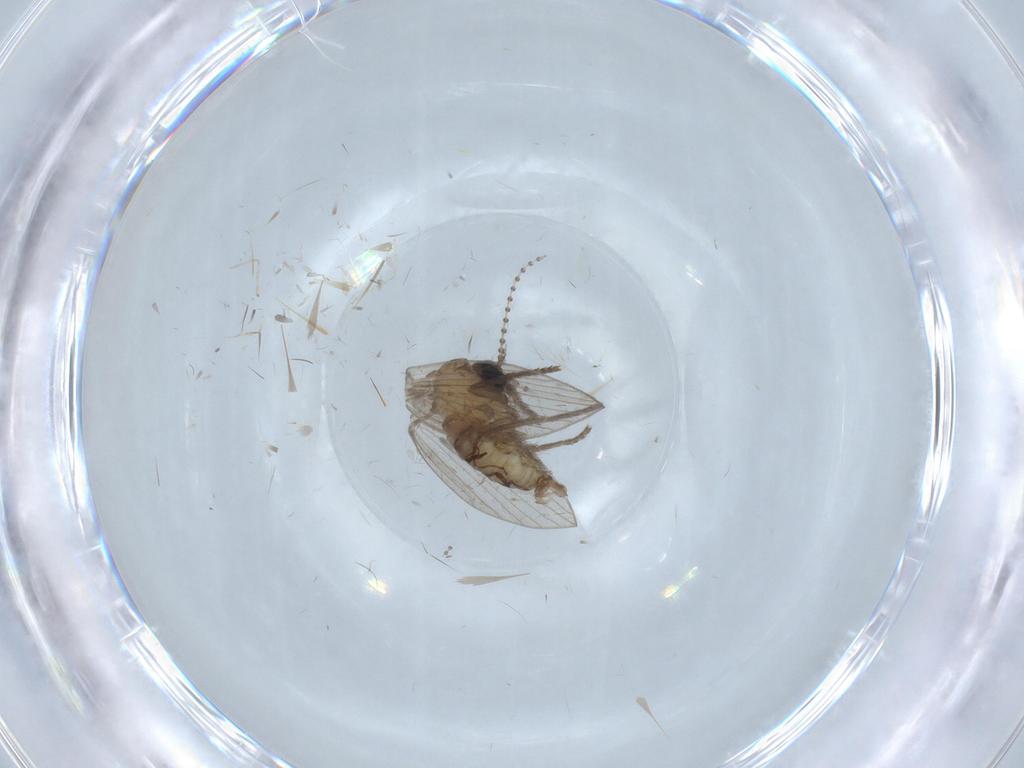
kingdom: Animalia
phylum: Arthropoda
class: Insecta
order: Diptera
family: Psychodidae
